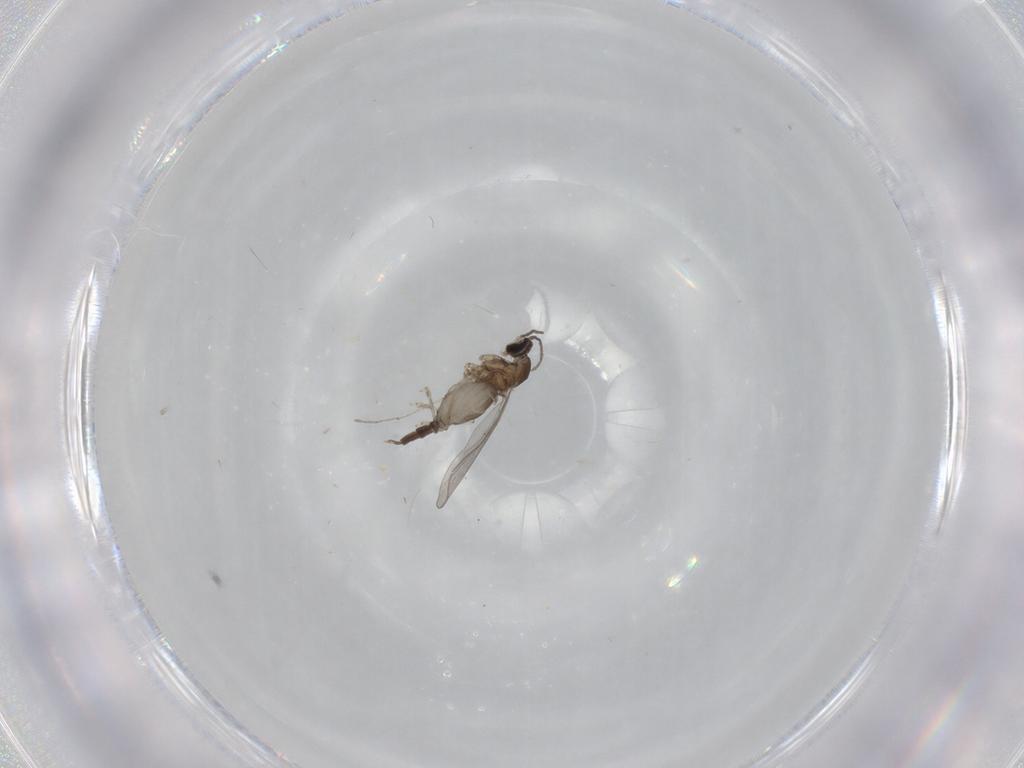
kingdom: Animalia
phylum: Arthropoda
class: Insecta
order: Diptera
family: Cecidomyiidae
